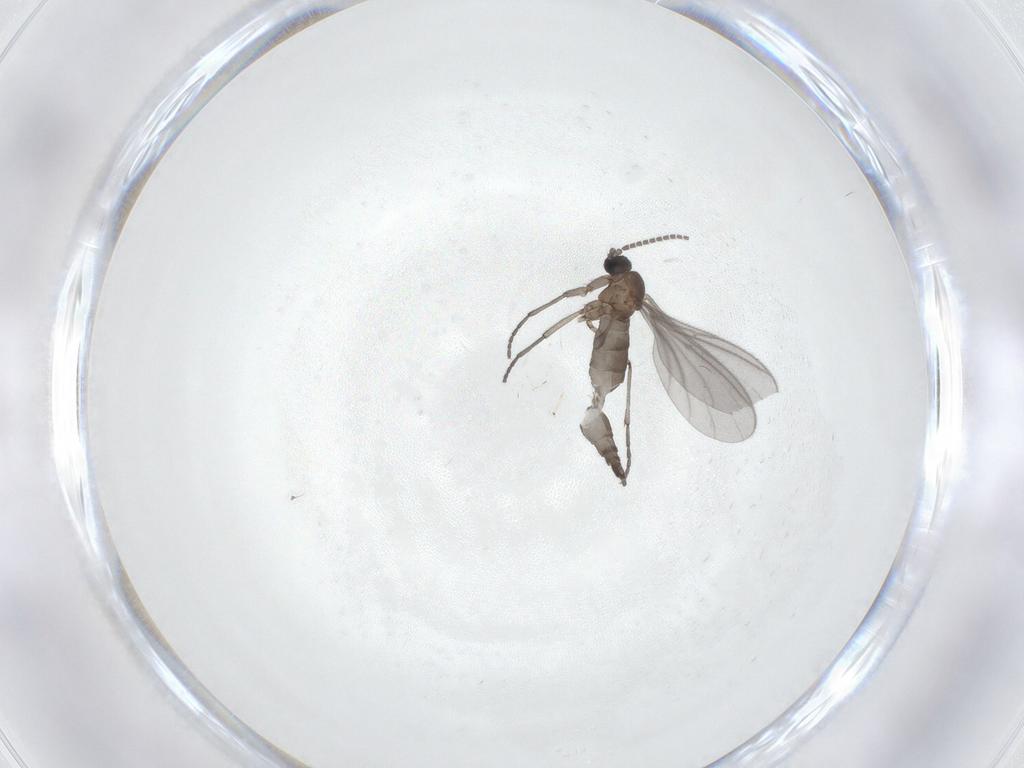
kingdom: Animalia
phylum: Arthropoda
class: Insecta
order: Diptera
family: Sciaridae
